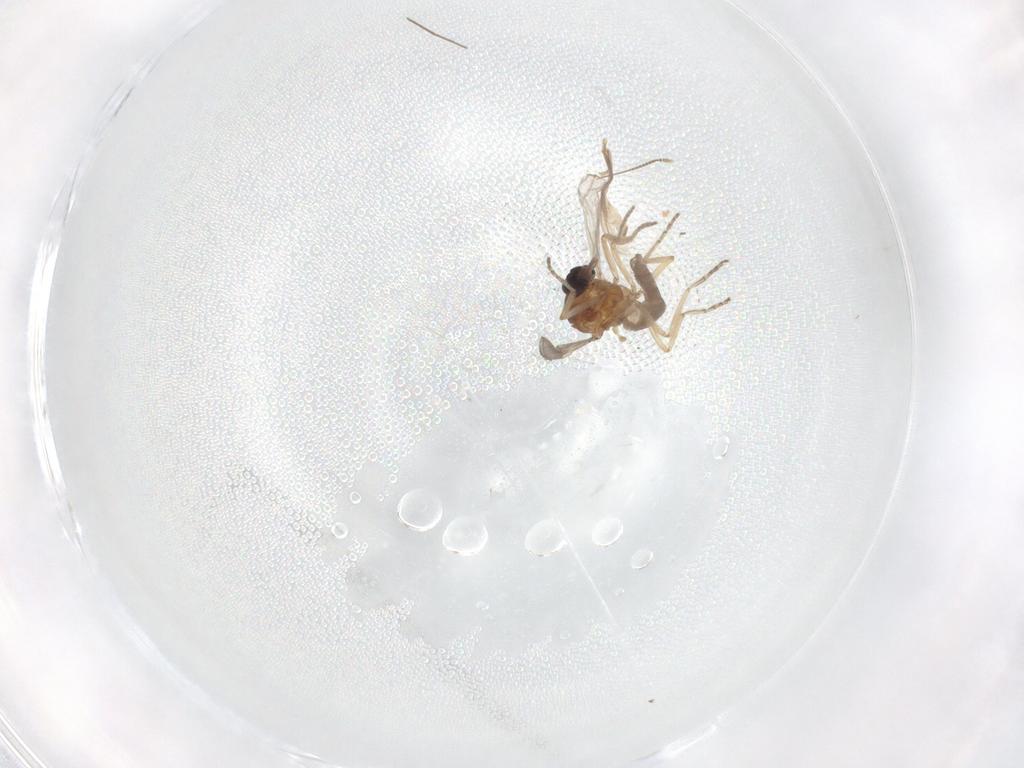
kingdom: Animalia
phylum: Arthropoda
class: Insecta
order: Diptera
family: Ceratopogonidae
